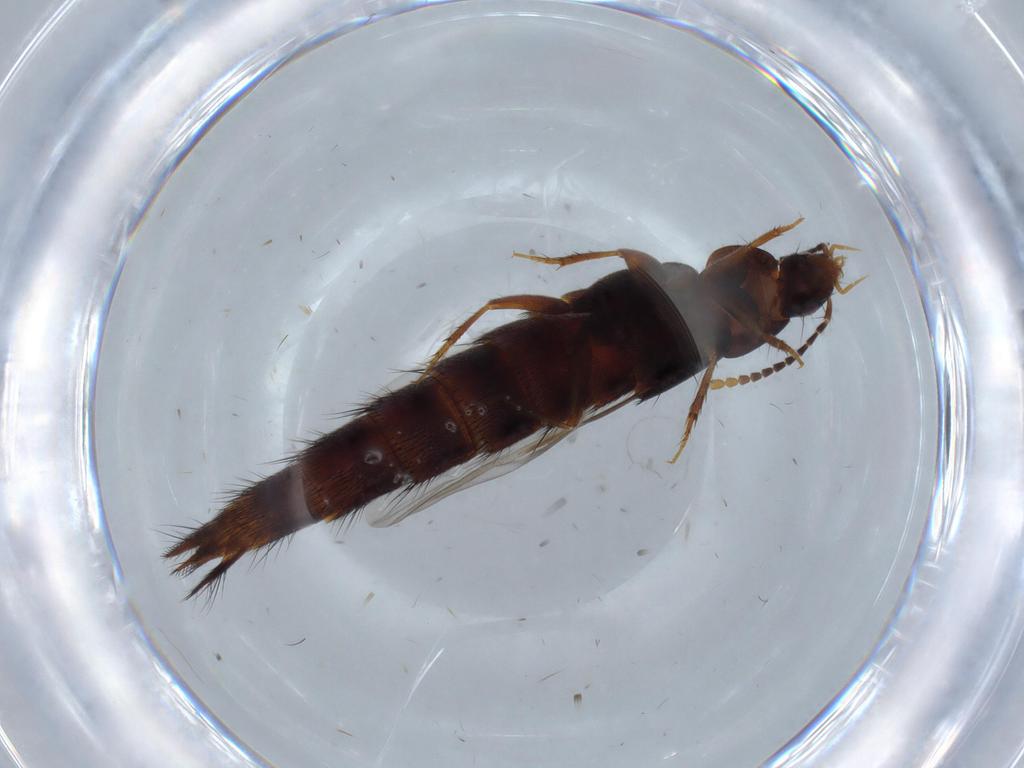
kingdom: Animalia
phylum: Arthropoda
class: Insecta
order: Coleoptera
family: Staphylinidae
